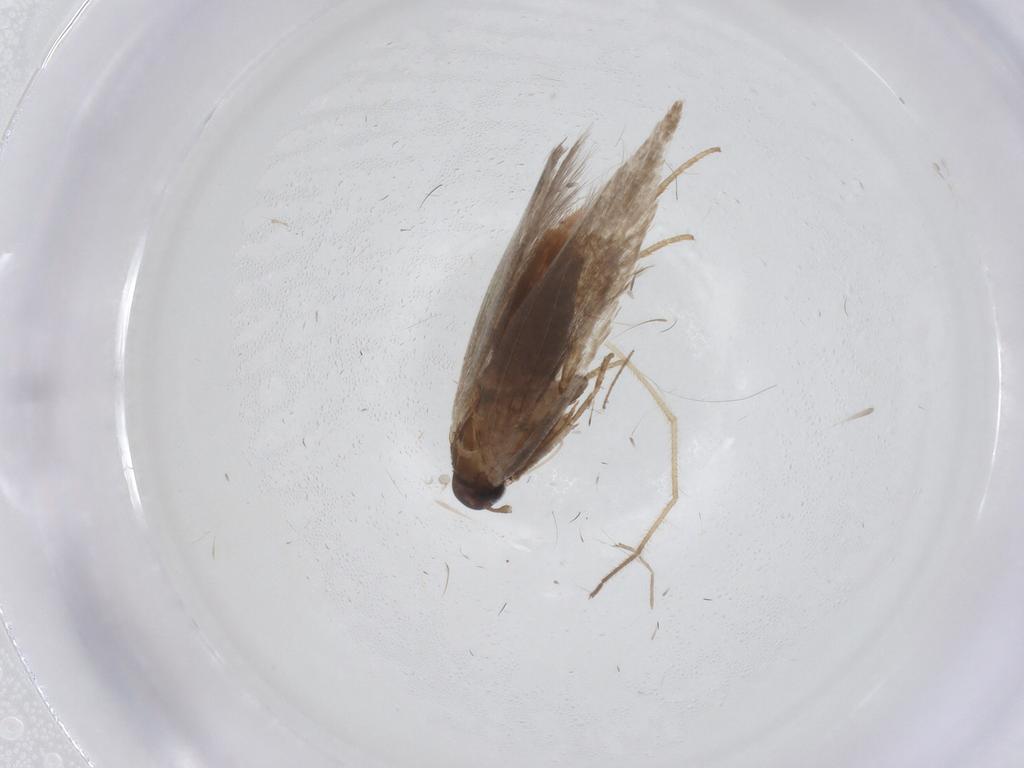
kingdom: Animalia
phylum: Arthropoda
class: Insecta
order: Lepidoptera
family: Gelechiidae
